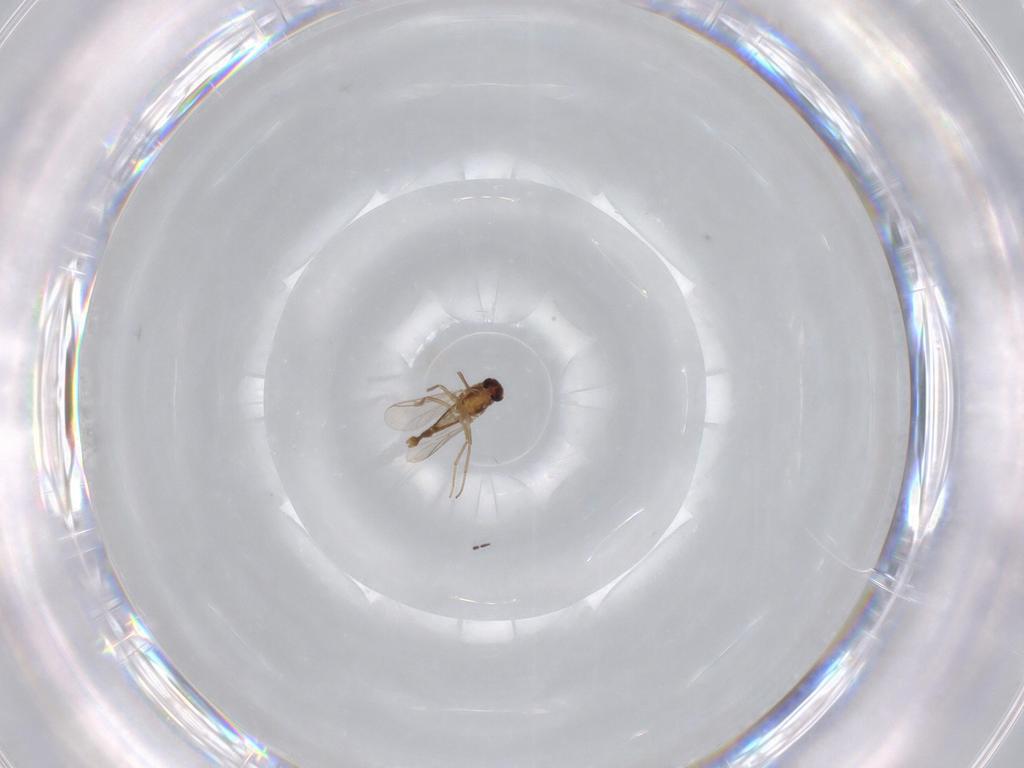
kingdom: Animalia
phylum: Arthropoda
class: Insecta
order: Diptera
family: Chironomidae
